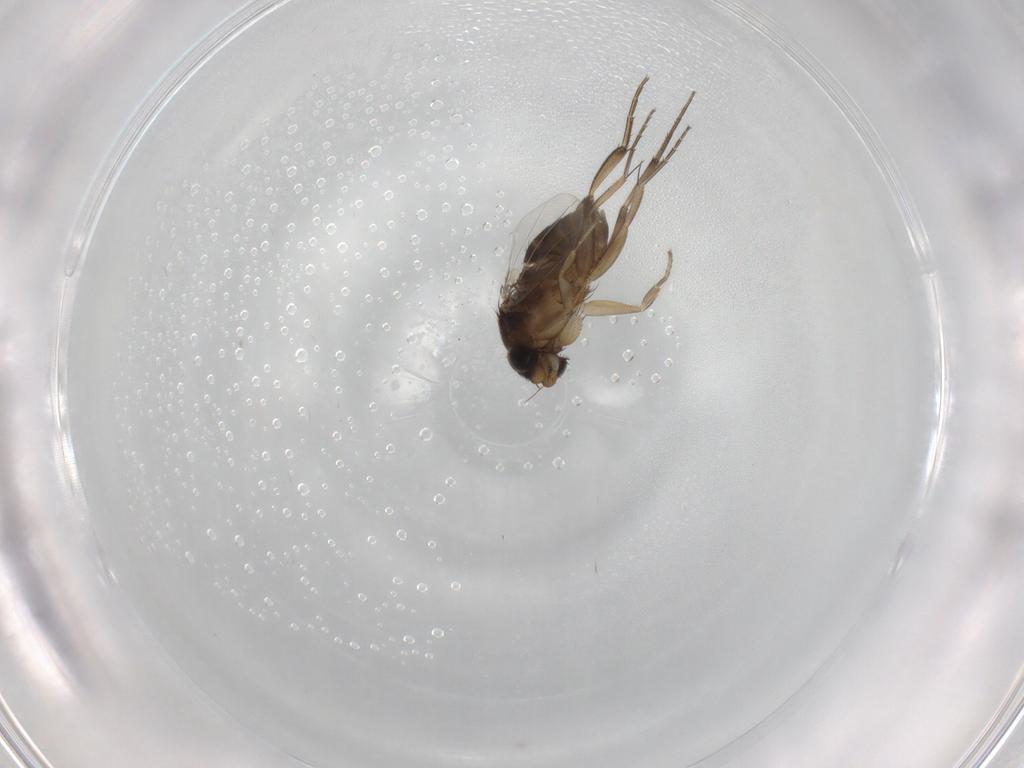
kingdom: Animalia
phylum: Arthropoda
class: Insecta
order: Diptera
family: Phoridae
